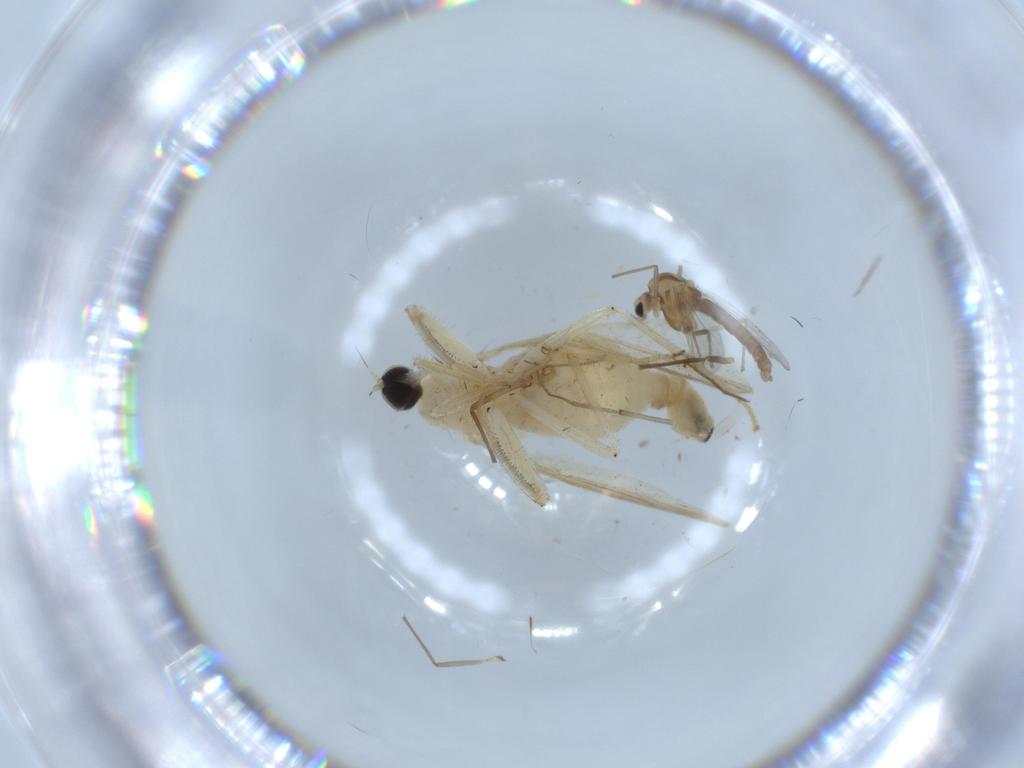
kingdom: Animalia
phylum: Arthropoda
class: Insecta
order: Diptera
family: Hybotidae
